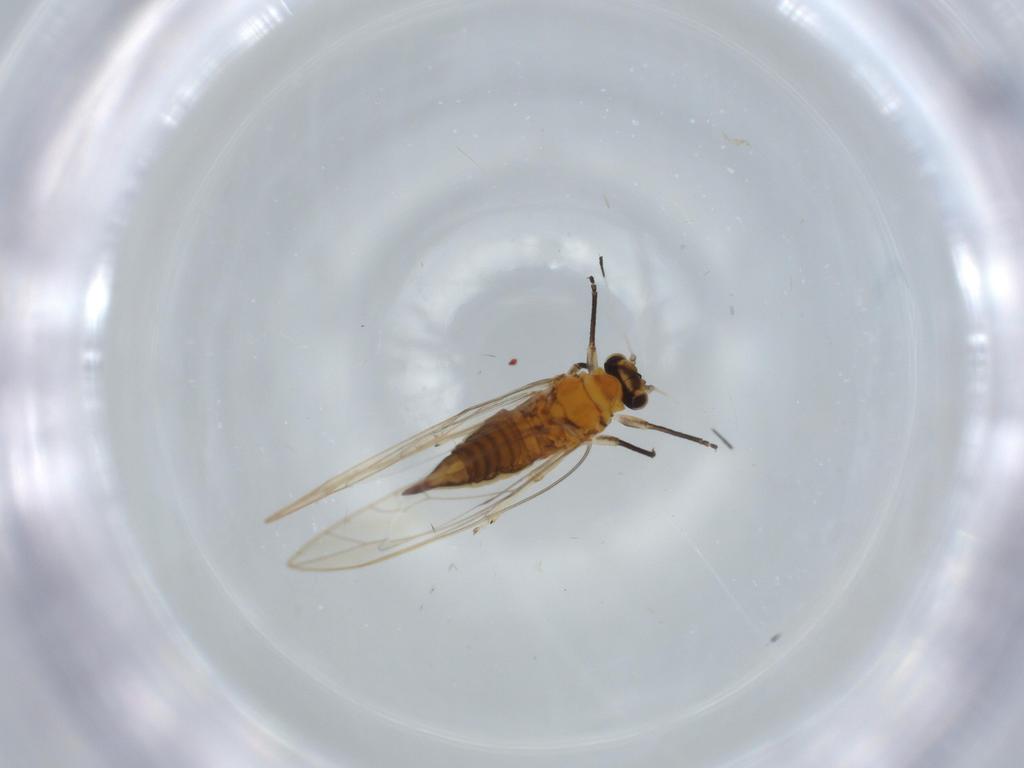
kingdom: Animalia
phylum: Arthropoda
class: Insecta
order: Hemiptera
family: Triozidae
